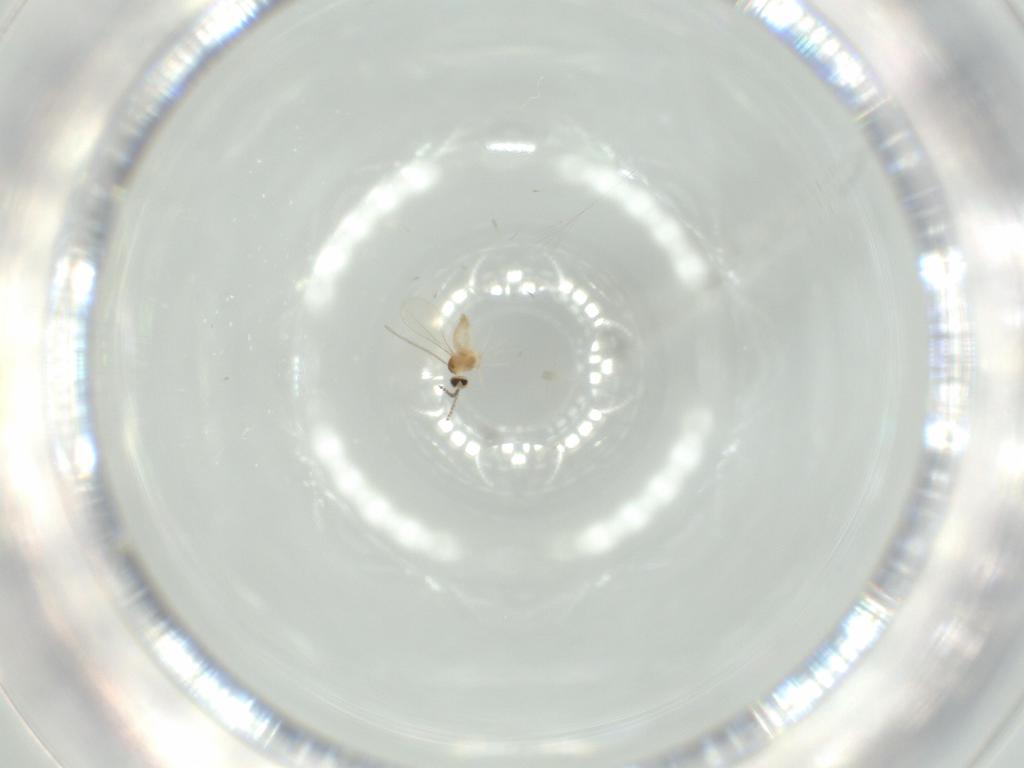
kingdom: Animalia
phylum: Arthropoda
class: Insecta
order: Diptera
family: Cecidomyiidae
